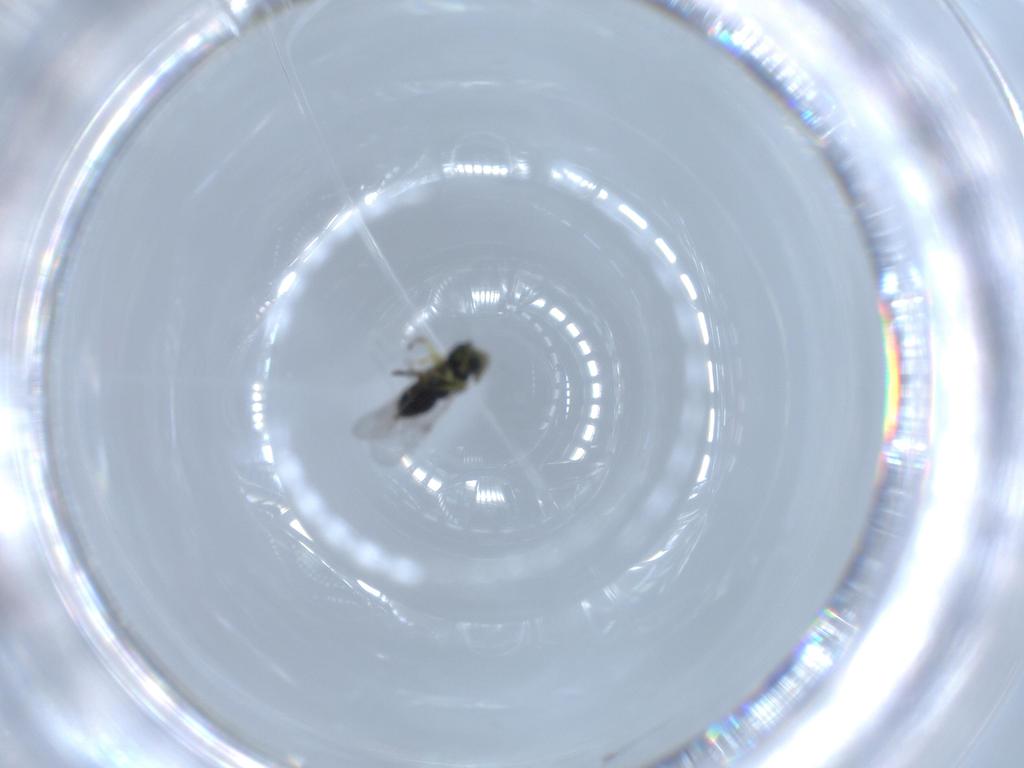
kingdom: Animalia
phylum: Arthropoda
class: Insecta
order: Hymenoptera
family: Encyrtidae
